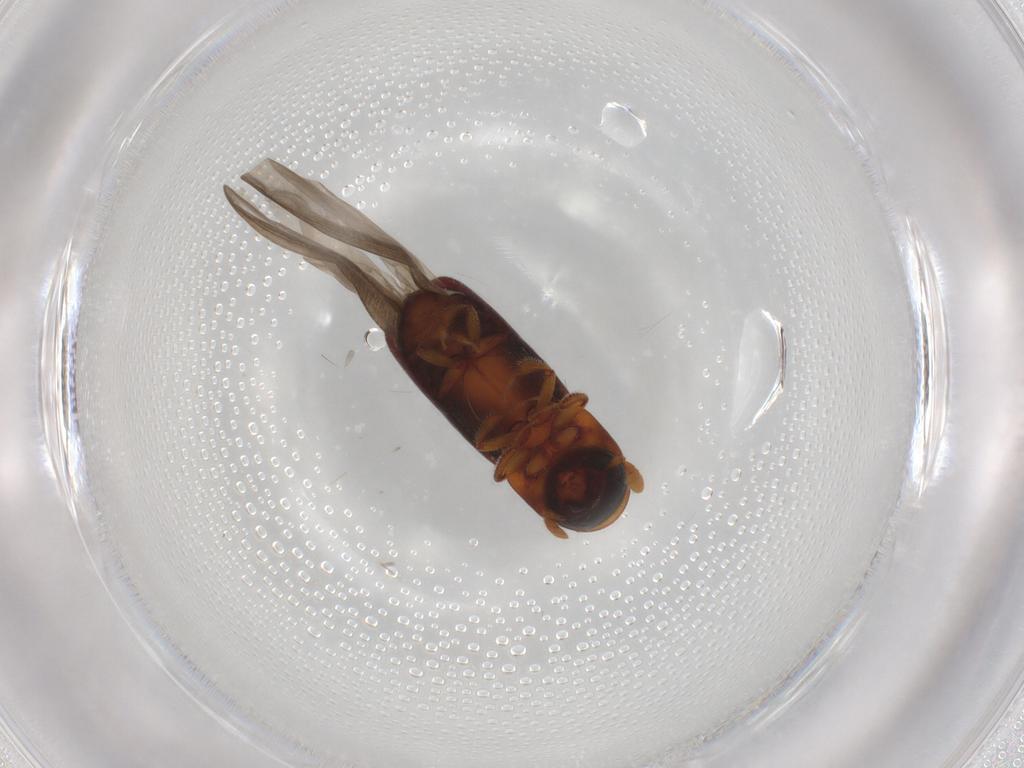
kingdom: Animalia
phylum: Arthropoda
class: Insecta
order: Coleoptera
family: Curculionidae
